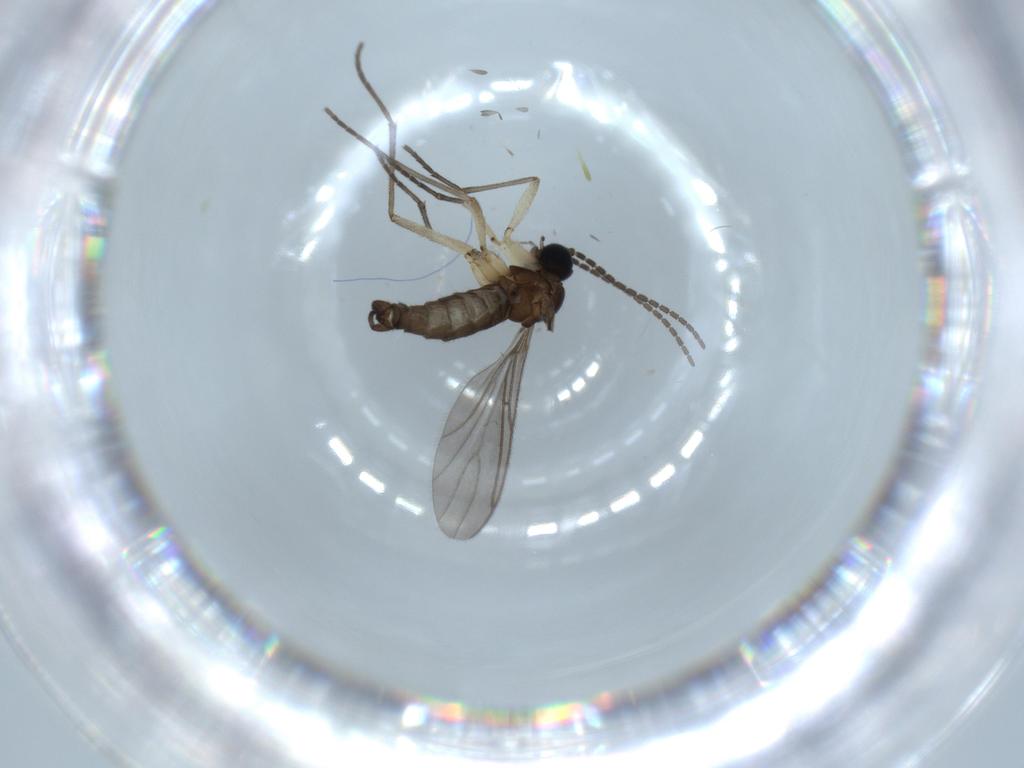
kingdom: Animalia
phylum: Arthropoda
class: Insecta
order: Diptera
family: Sciaridae
